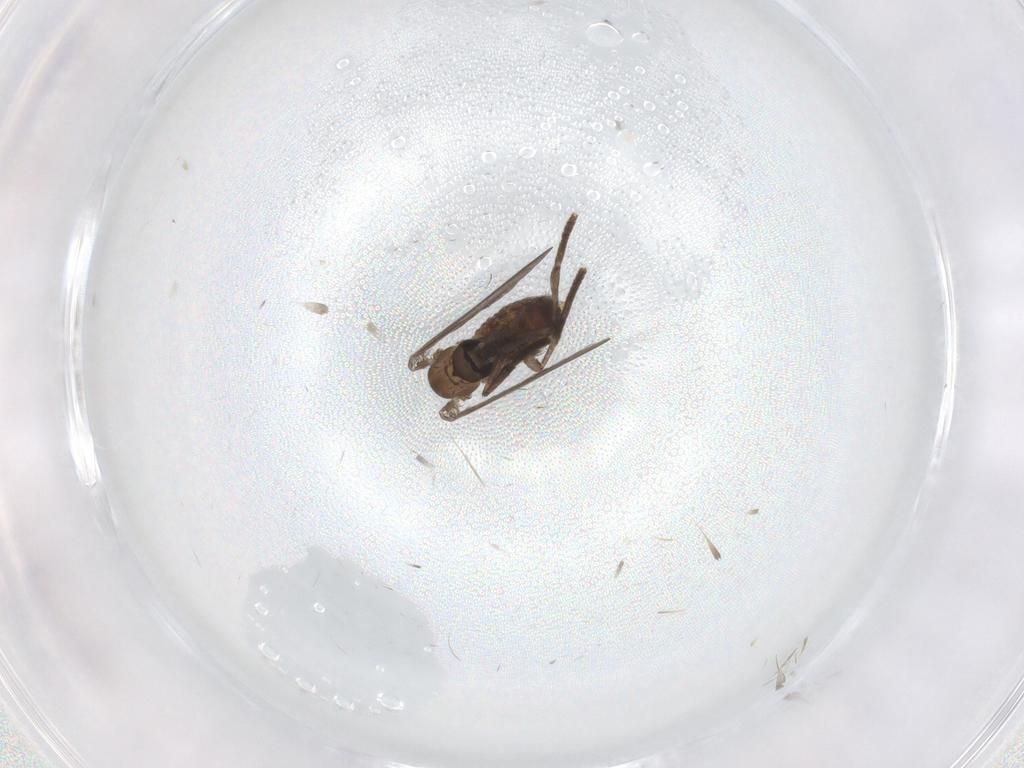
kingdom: Animalia
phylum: Arthropoda
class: Insecta
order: Diptera
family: Psychodidae
